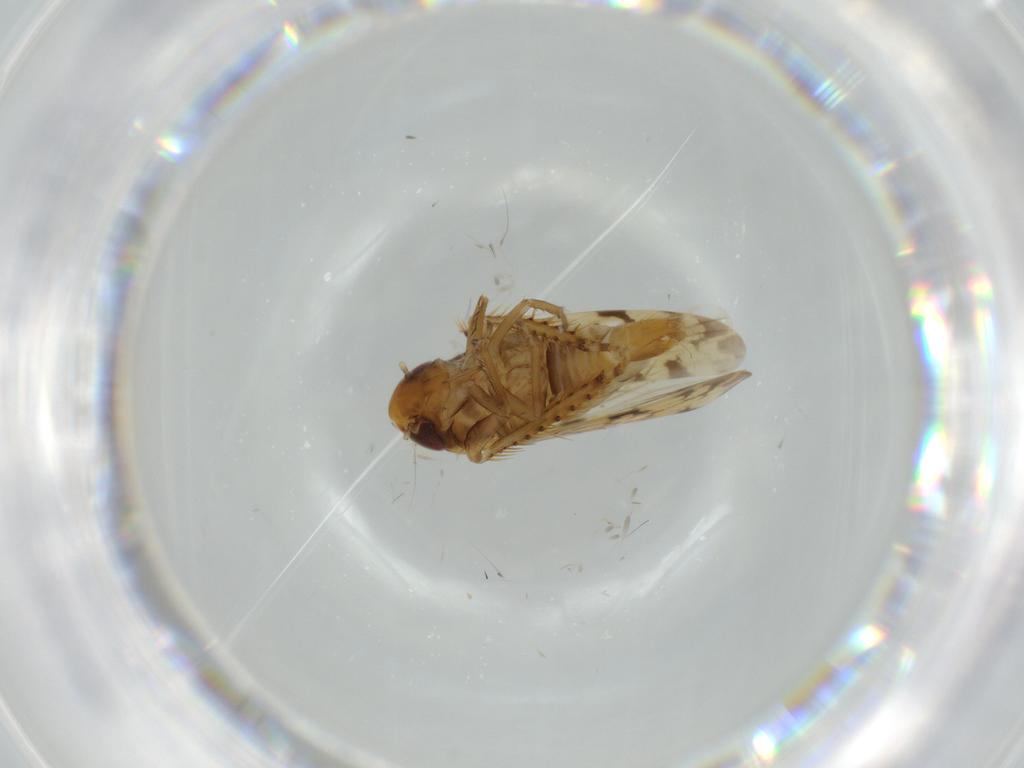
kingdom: Animalia
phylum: Arthropoda
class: Insecta
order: Hemiptera
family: Cicadellidae
